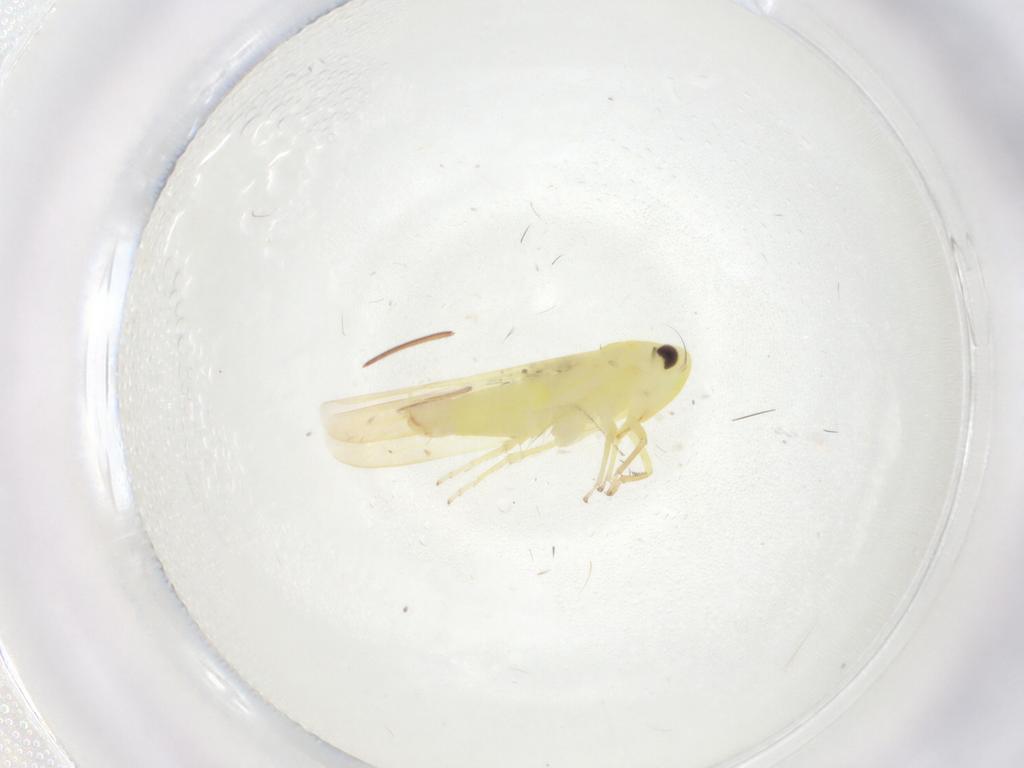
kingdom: Animalia
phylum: Arthropoda
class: Insecta
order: Hemiptera
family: Cicadellidae
